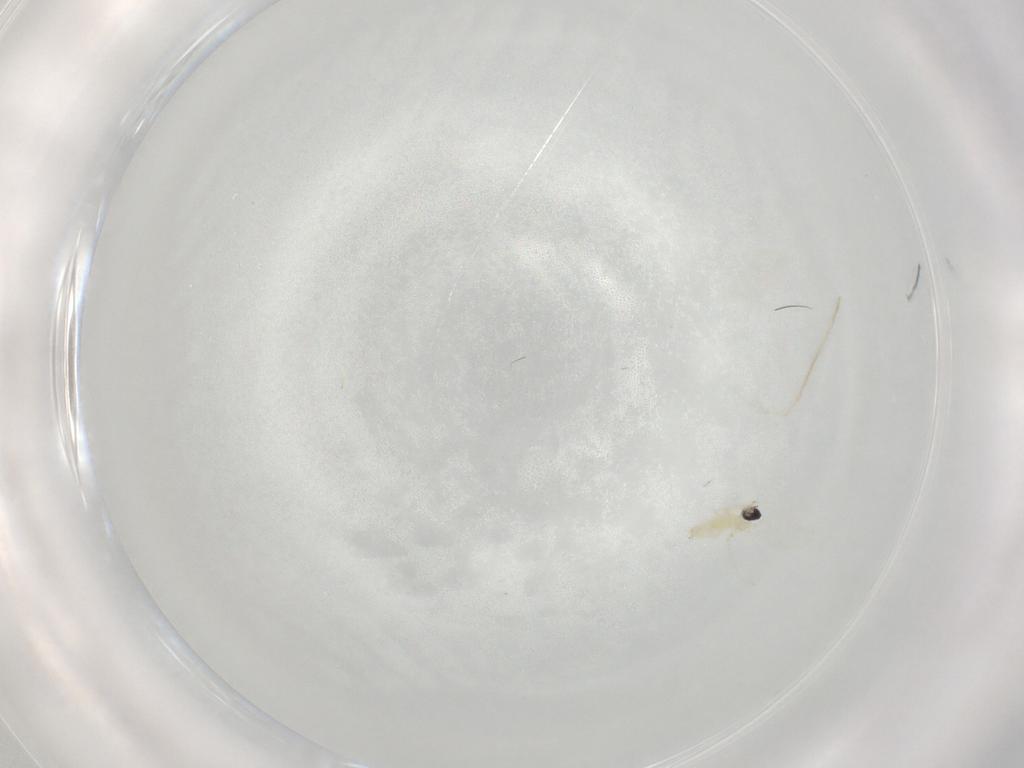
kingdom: Animalia
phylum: Arthropoda
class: Insecta
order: Diptera
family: Cecidomyiidae
